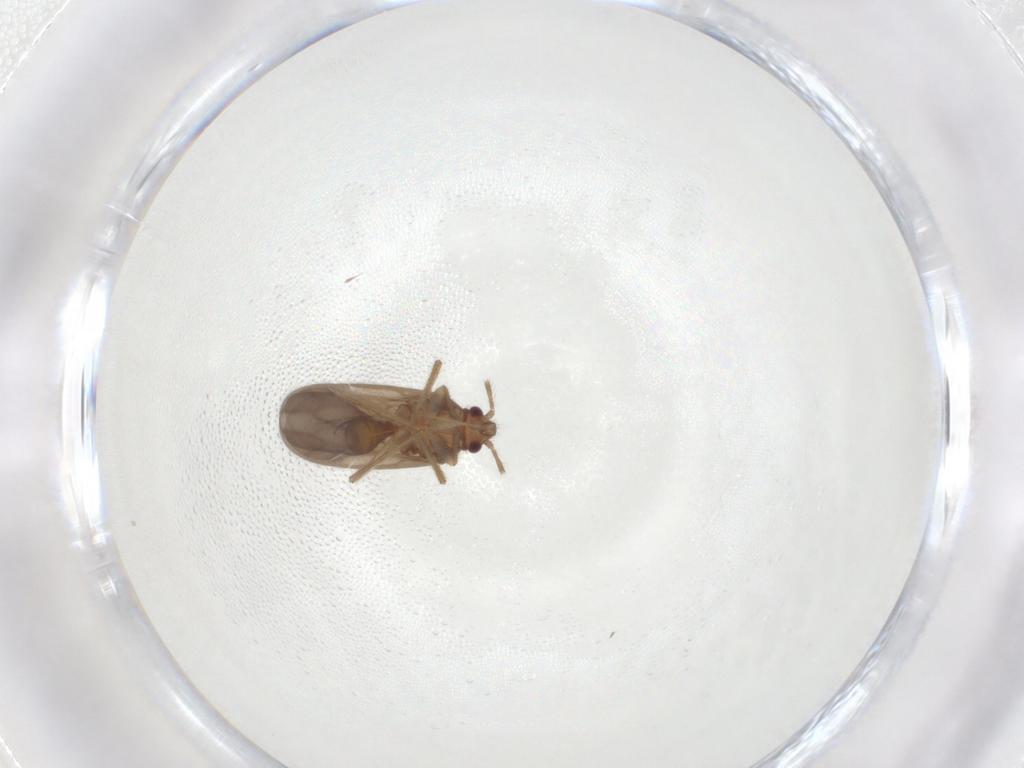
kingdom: Animalia
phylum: Arthropoda
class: Insecta
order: Hemiptera
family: Ceratocombidae
